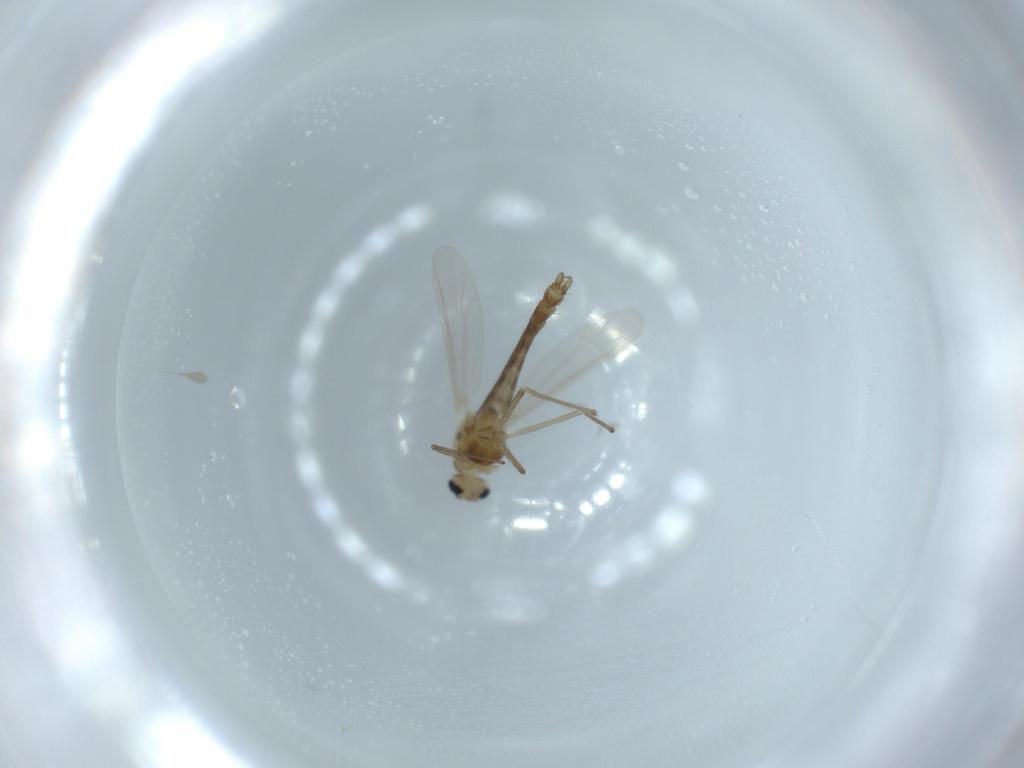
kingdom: Animalia
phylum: Arthropoda
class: Insecta
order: Diptera
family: Chironomidae
